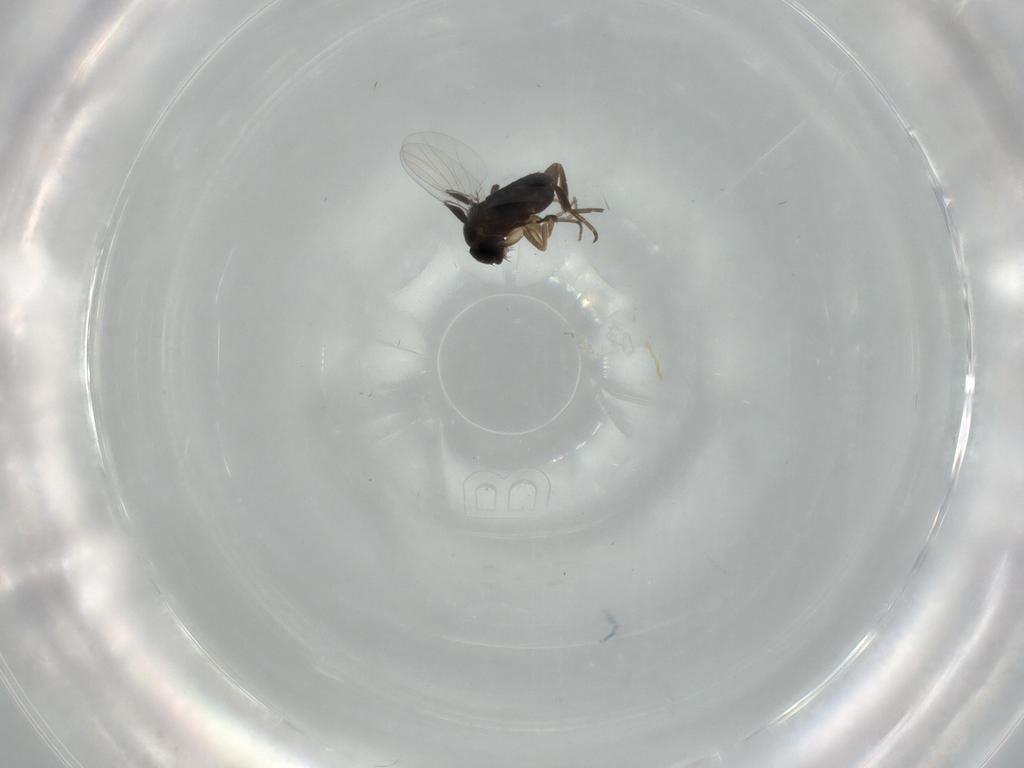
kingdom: Animalia
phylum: Arthropoda
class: Insecta
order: Diptera
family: Phoridae
